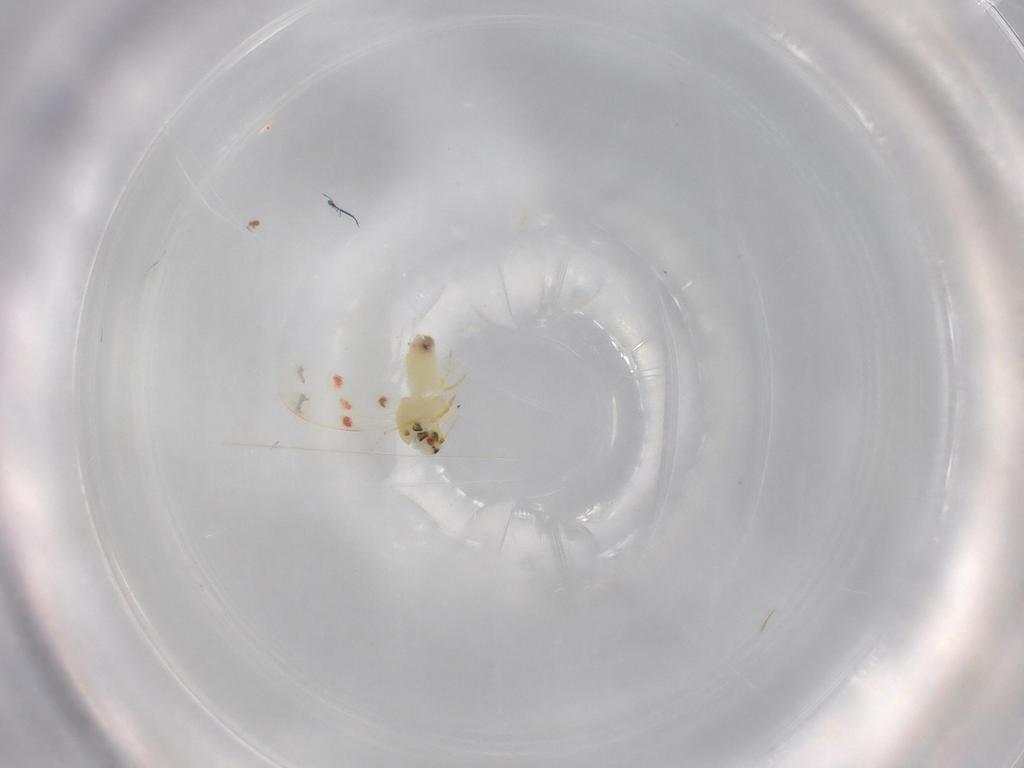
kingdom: Animalia
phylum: Arthropoda
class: Insecta
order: Hemiptera
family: Aleyrodidae
